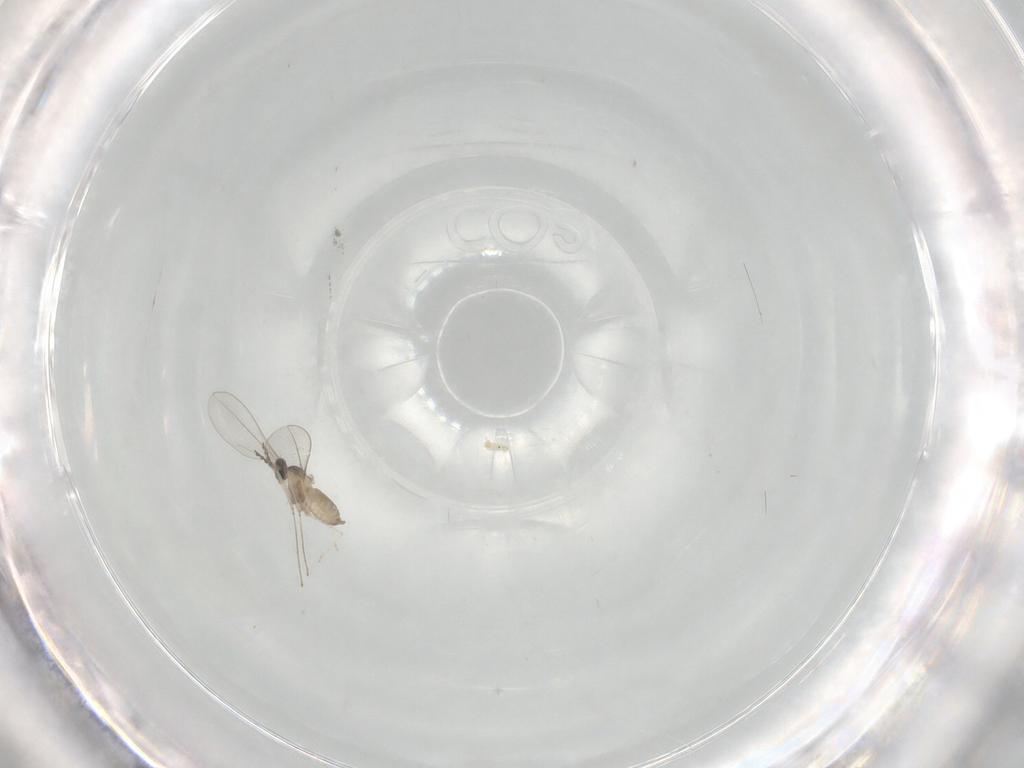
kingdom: Animalia
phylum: Arthropoda
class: Insecta
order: Diptera
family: Cecidomyiidae
